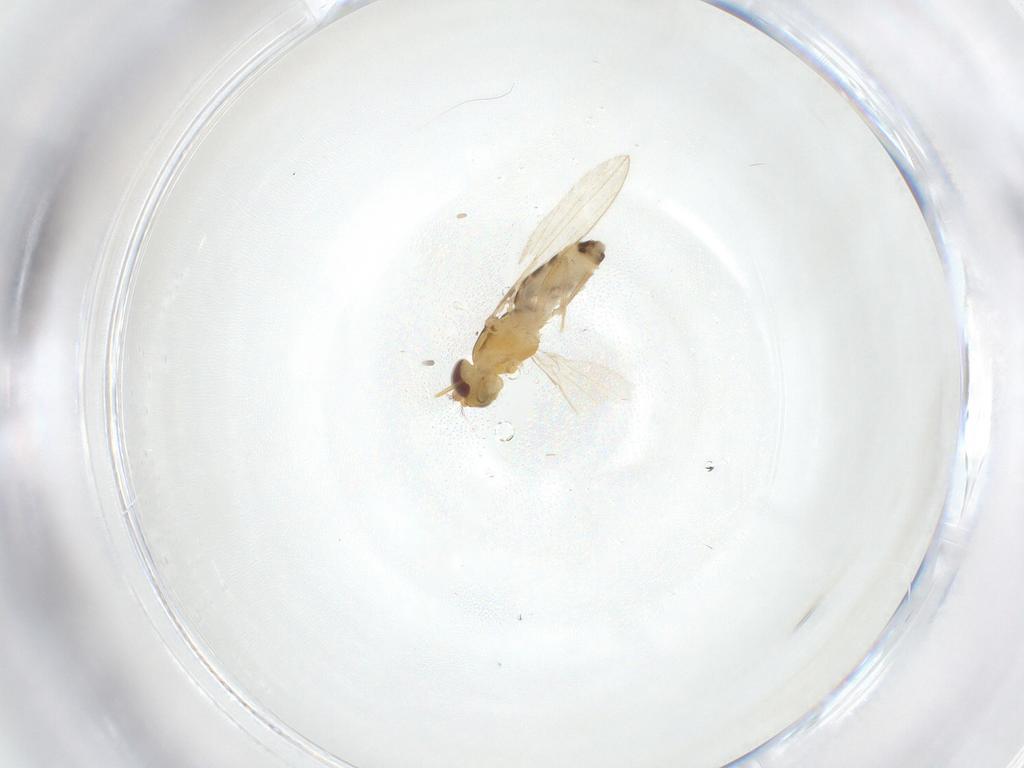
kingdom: Animalia
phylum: Arthropoda
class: Insecta
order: Diptera
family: Periscelididae
